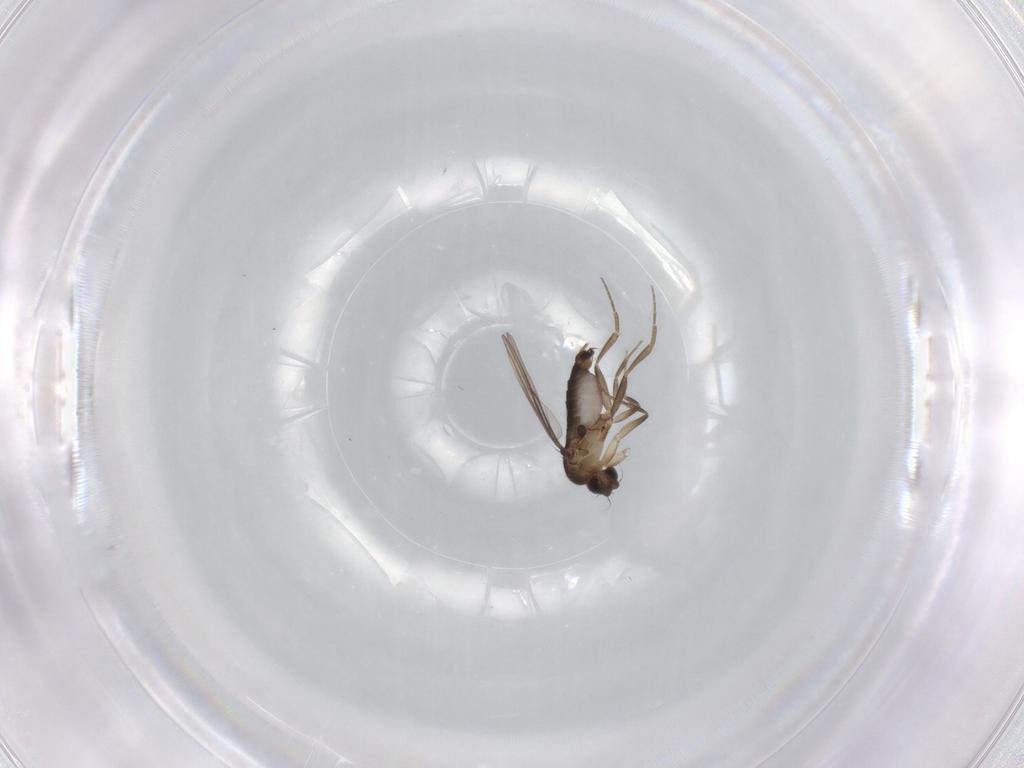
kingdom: Animalia
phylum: Arthropoda
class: Insecta
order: Diptera
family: Phoridae
